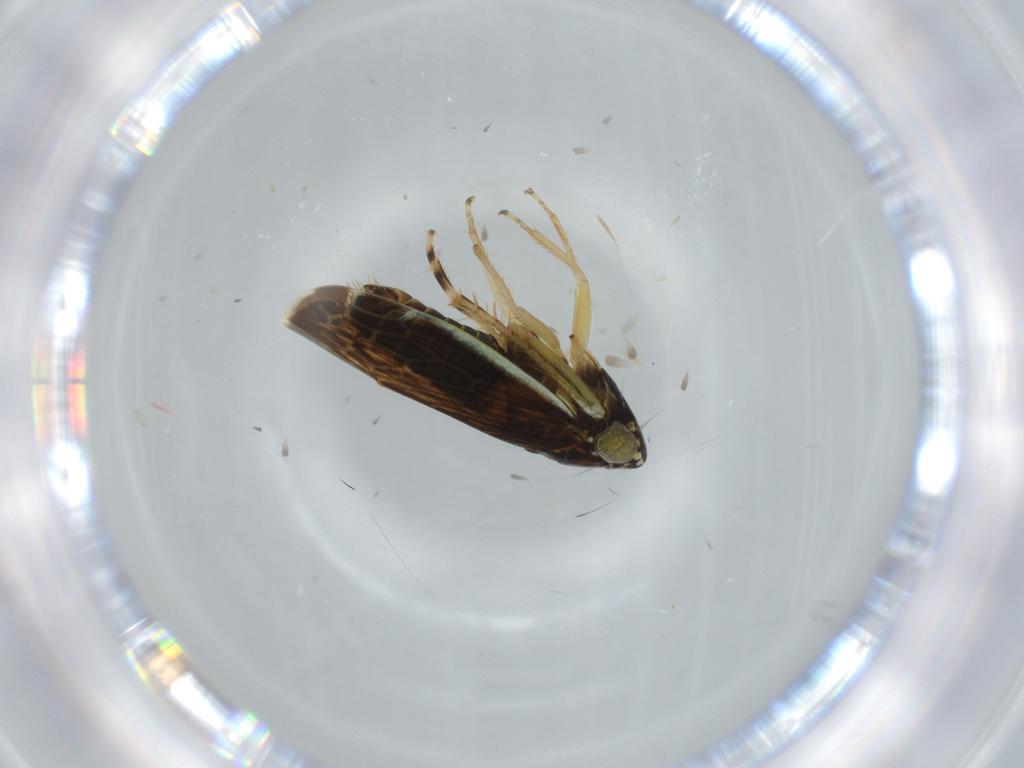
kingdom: Animalia
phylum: Arthropoda
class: Insecta
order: Hemiptera
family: Cicadellidae
